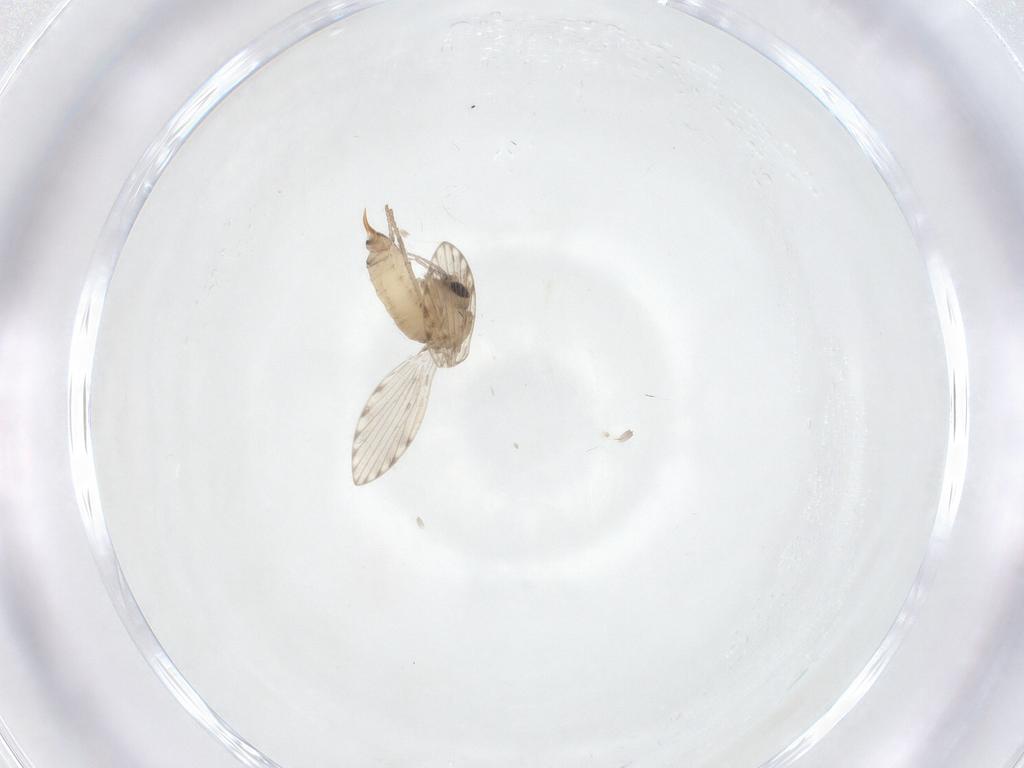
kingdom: Animalia
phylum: Arthropoda
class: Insecta
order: Diptera
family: Psychodidae
